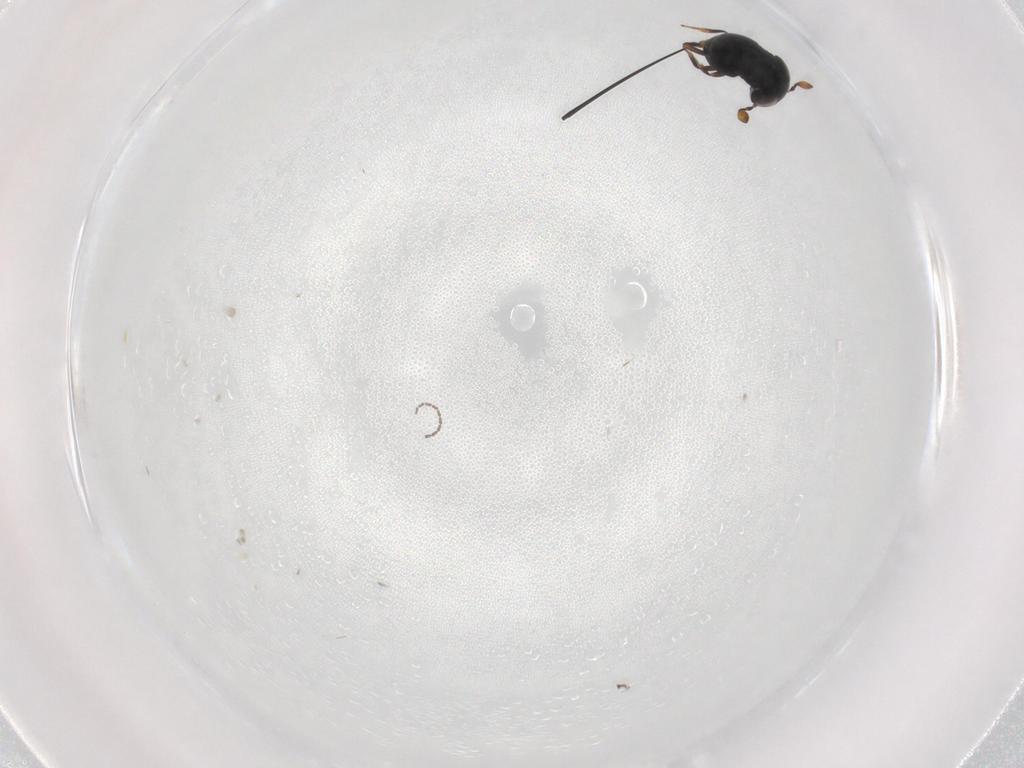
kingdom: Animalia
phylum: Arthropoda
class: Insecta
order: Hymenoptera
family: Scelionidae
